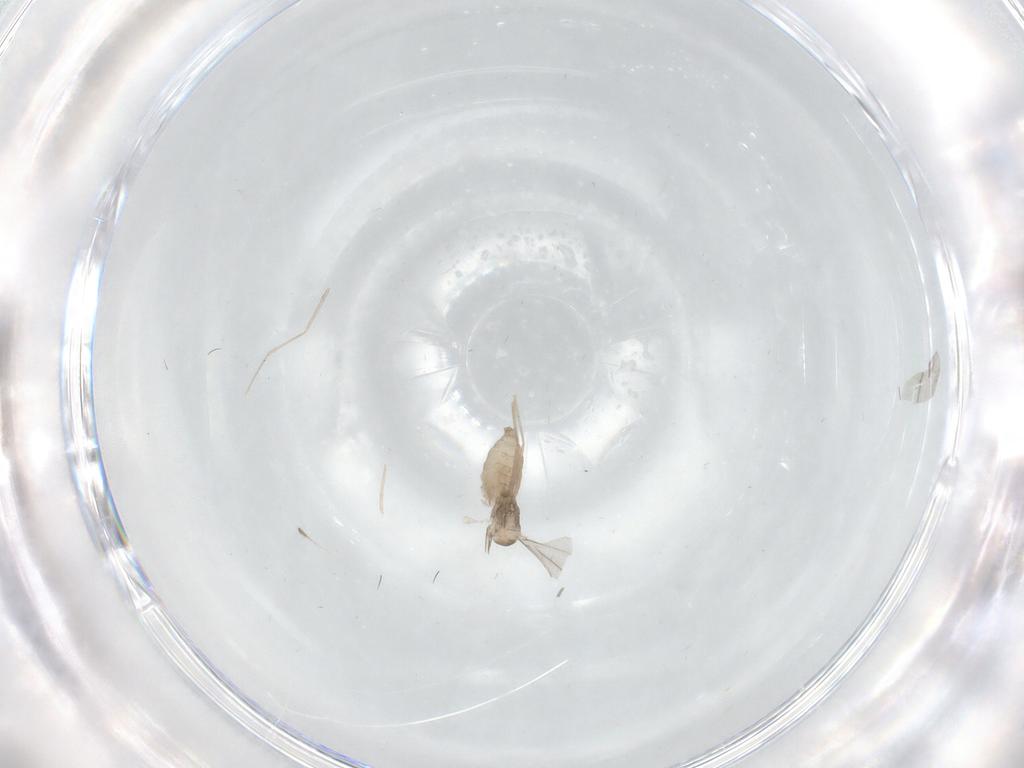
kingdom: Animalia
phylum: Arthropoda
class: Insecta
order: Diptera
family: Cecidomyiidae
